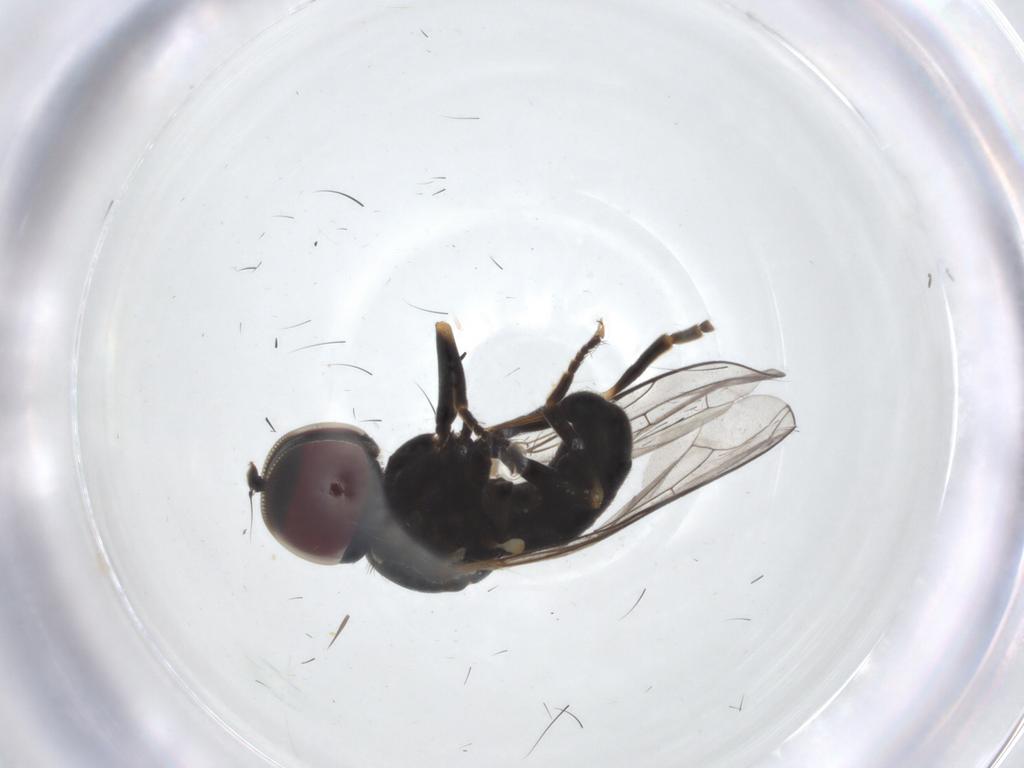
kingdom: Animalia
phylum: Arthropoda
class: Insecta
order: Diptera
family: Pipunculidae
